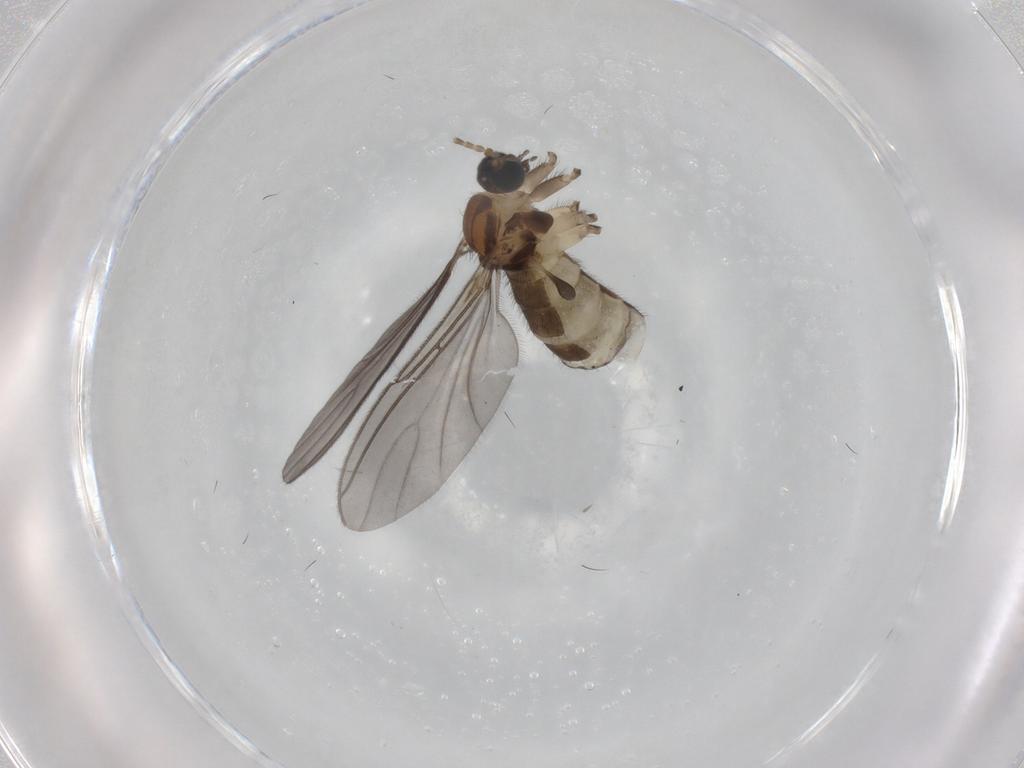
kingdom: Animalia
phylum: Arthropoda
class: Insecta
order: Diptera
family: Sciaridae
